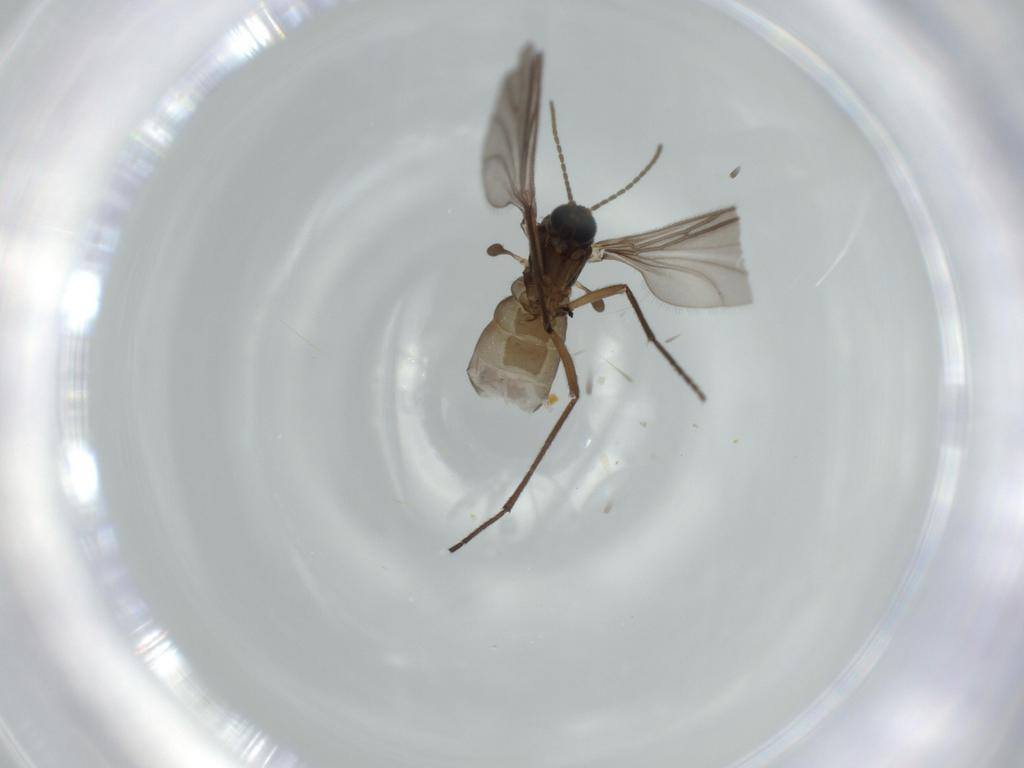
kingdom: Animalia
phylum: Arthropoda
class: Insecta
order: Diptera
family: Sciaridae
